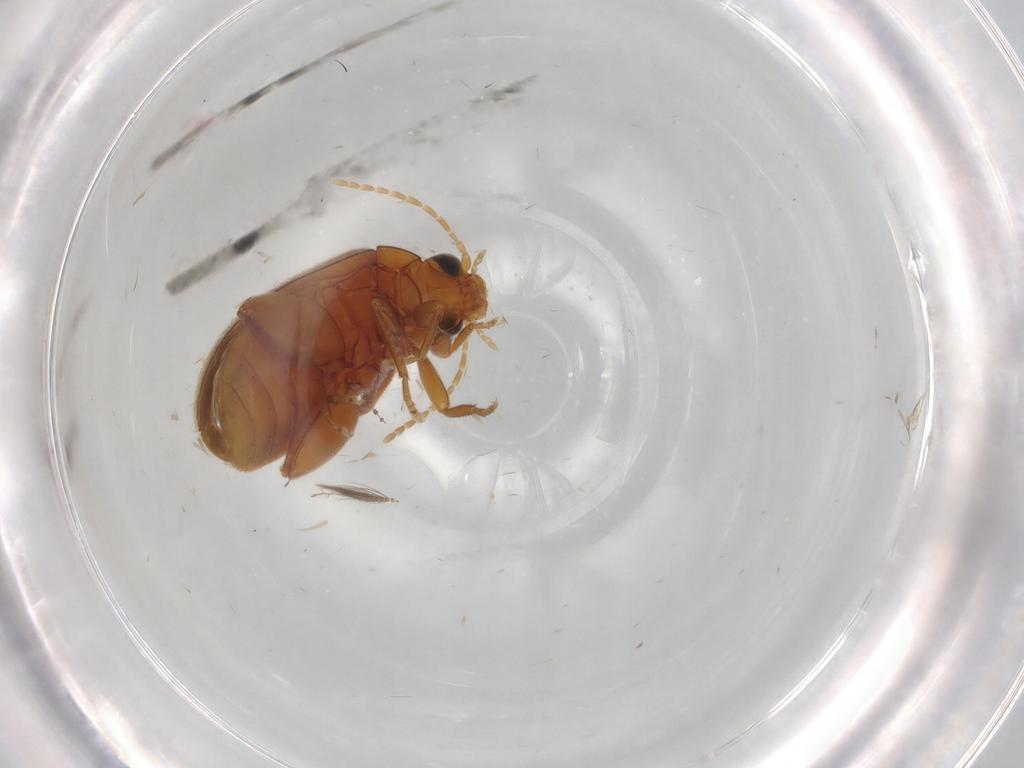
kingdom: Animalia
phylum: Arthropoda
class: Insecta
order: Coleoptera
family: Scirtidae
